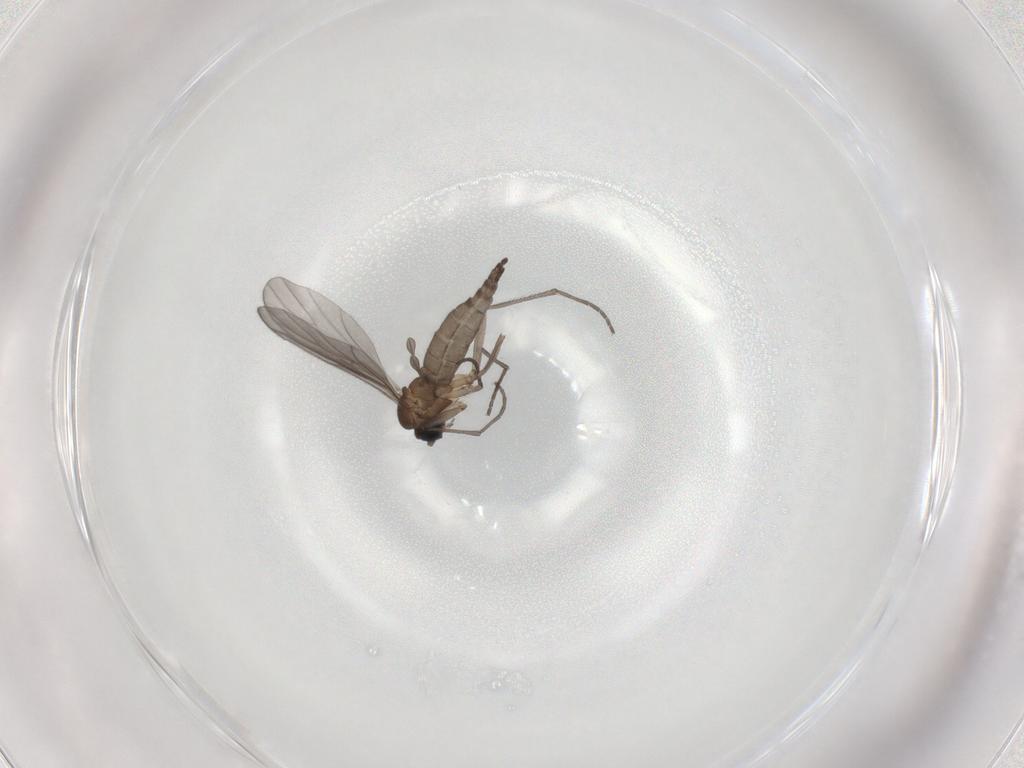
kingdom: Animalia
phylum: Arthropoda
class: Insecta
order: Diptera
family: Sciaridae
